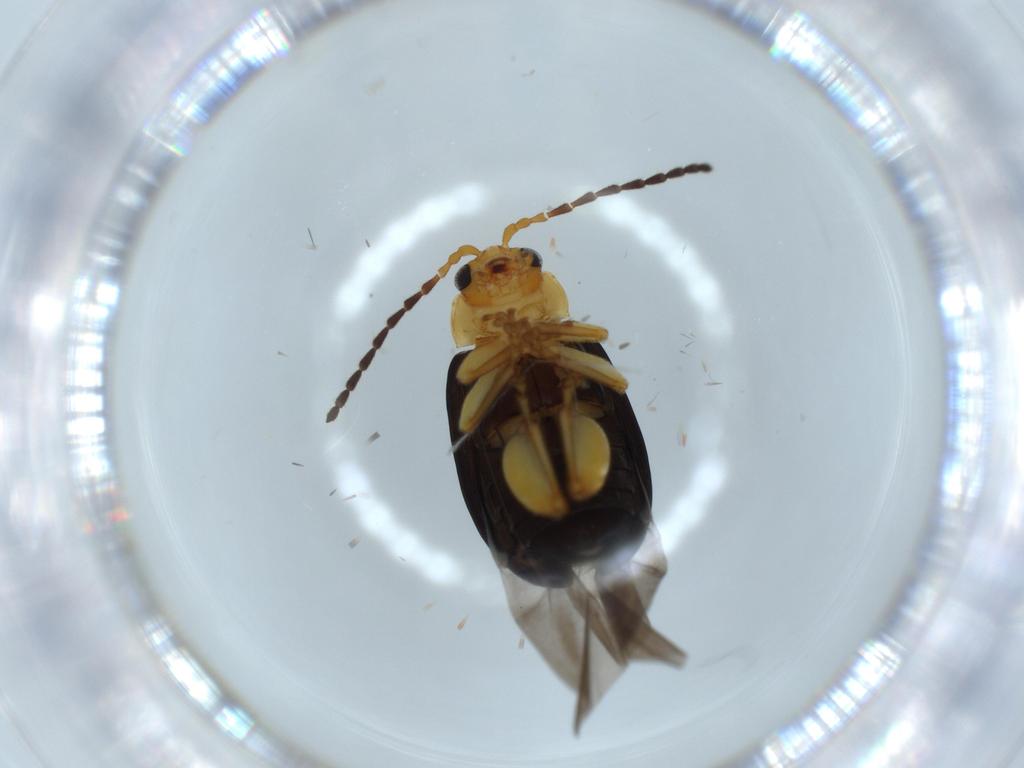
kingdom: Animalia
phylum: Arthropoda
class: Insecta
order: Coleoptera
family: Chrysomelidae
